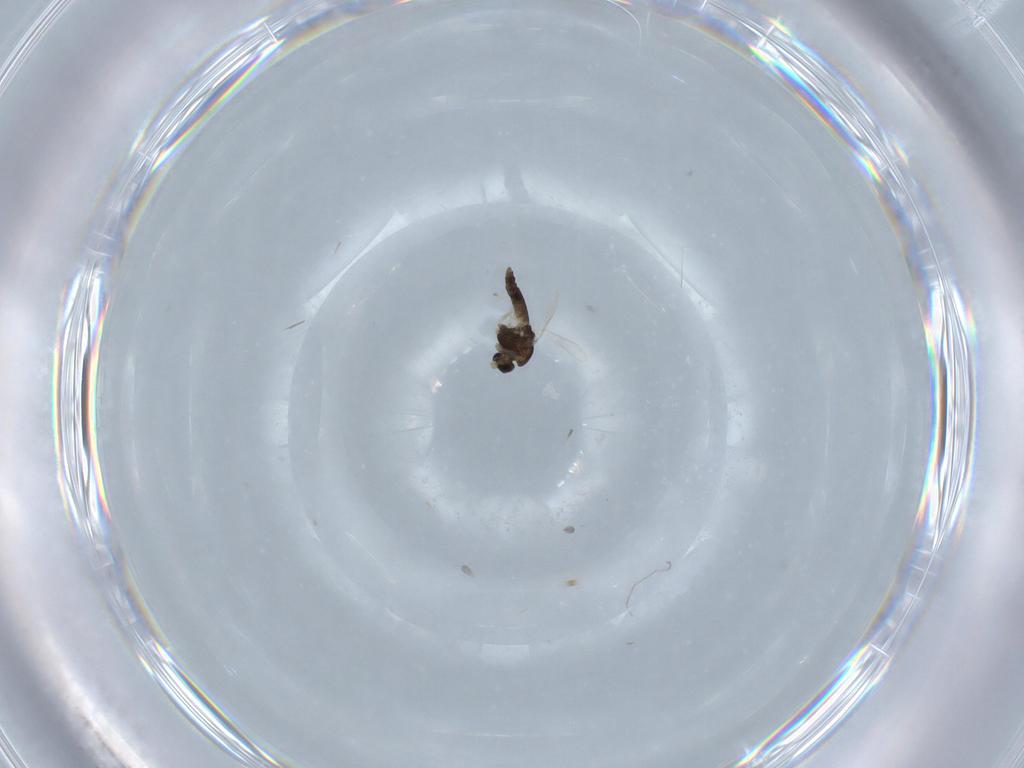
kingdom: Animalia
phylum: Arthropoda
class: Insecta
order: Diptera
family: Chironomidae
